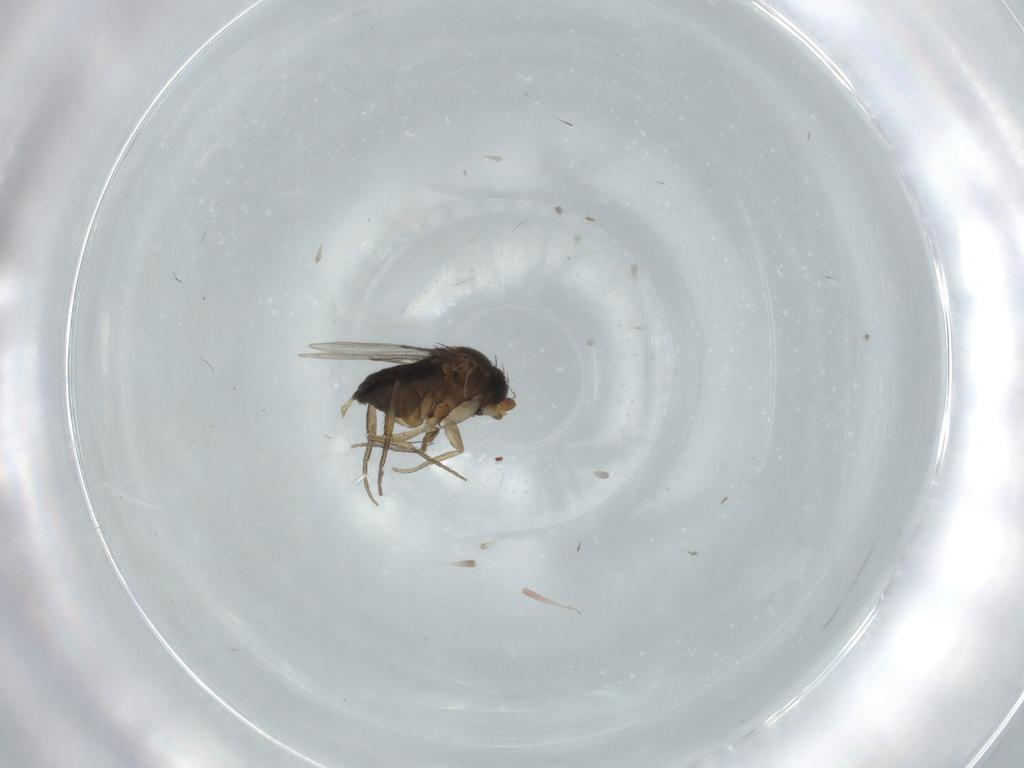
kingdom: Animalia
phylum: Arthropoda
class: Insecta
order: Diptera
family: Phoridae
